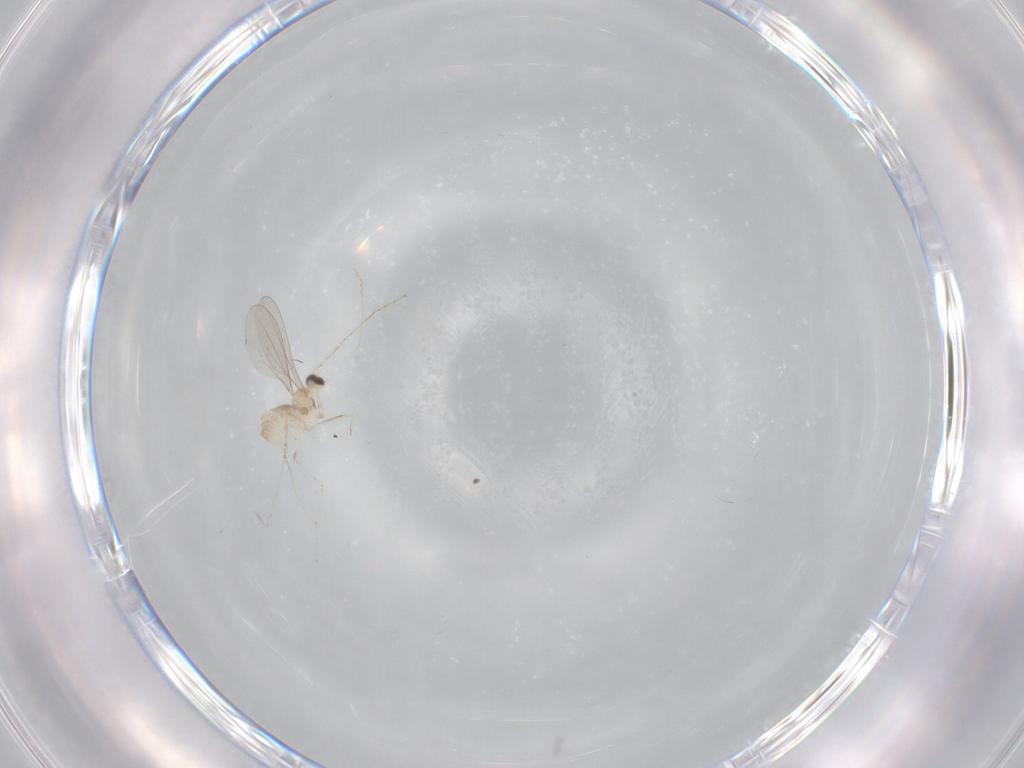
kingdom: Animalia
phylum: Arthropoda
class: Insecta
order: Diptera
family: Cecidomyiidae
